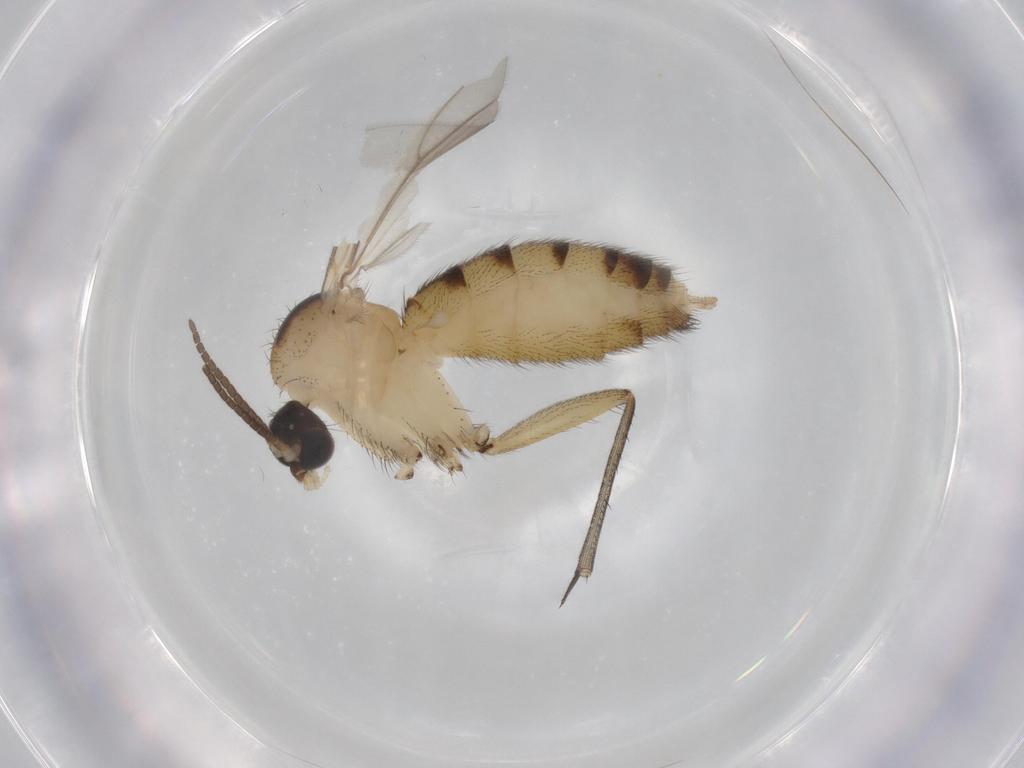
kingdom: Animalia
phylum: Arthropoda
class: Insecta
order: Diptera
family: Mycetophilidae
